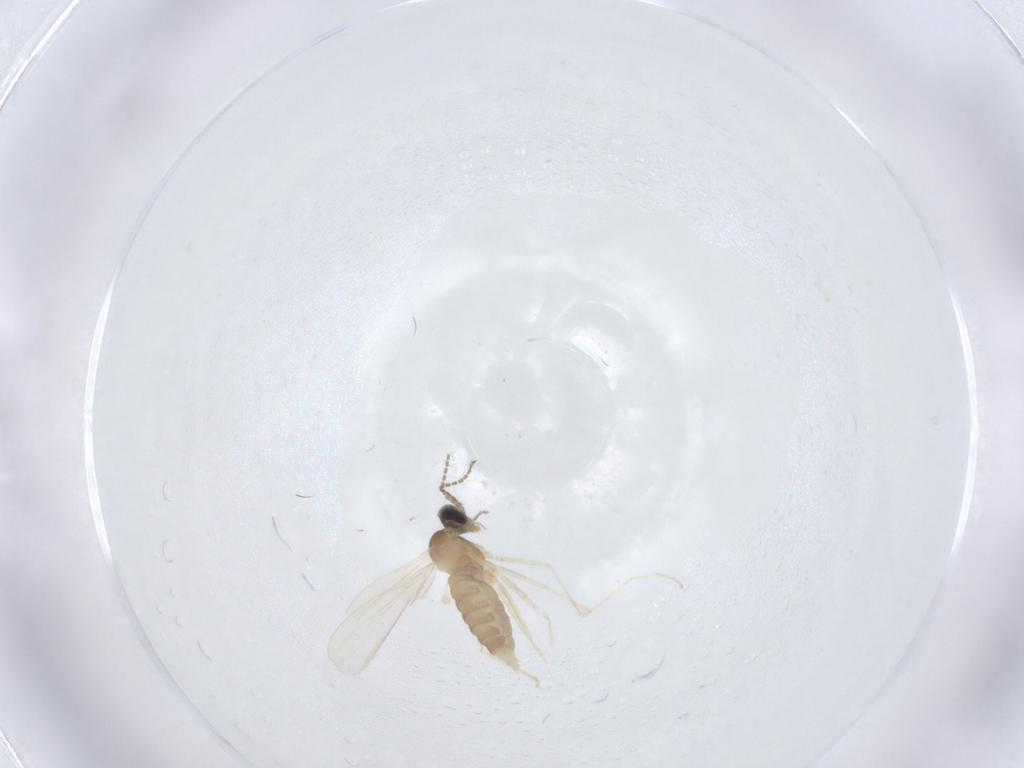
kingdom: Animalia
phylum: Arthropoda
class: Insecta
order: Diptera
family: Cecidomyiidae
